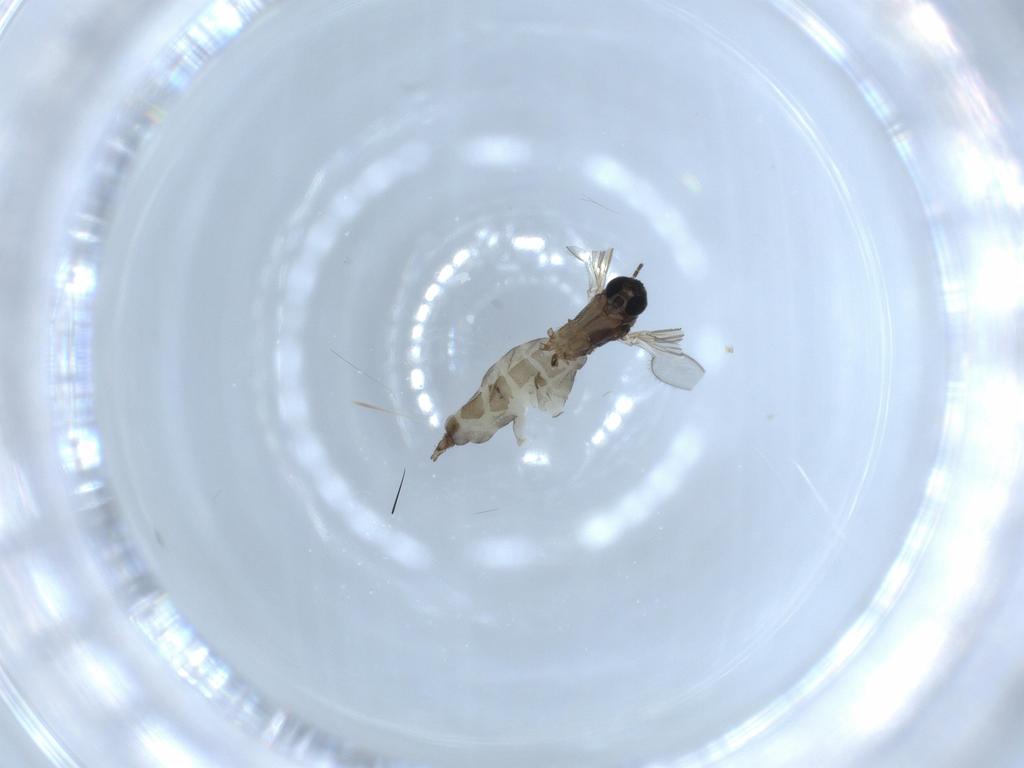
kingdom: Animalia
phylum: Arthropoda
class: Insecta
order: Diptera
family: Sciaridae
